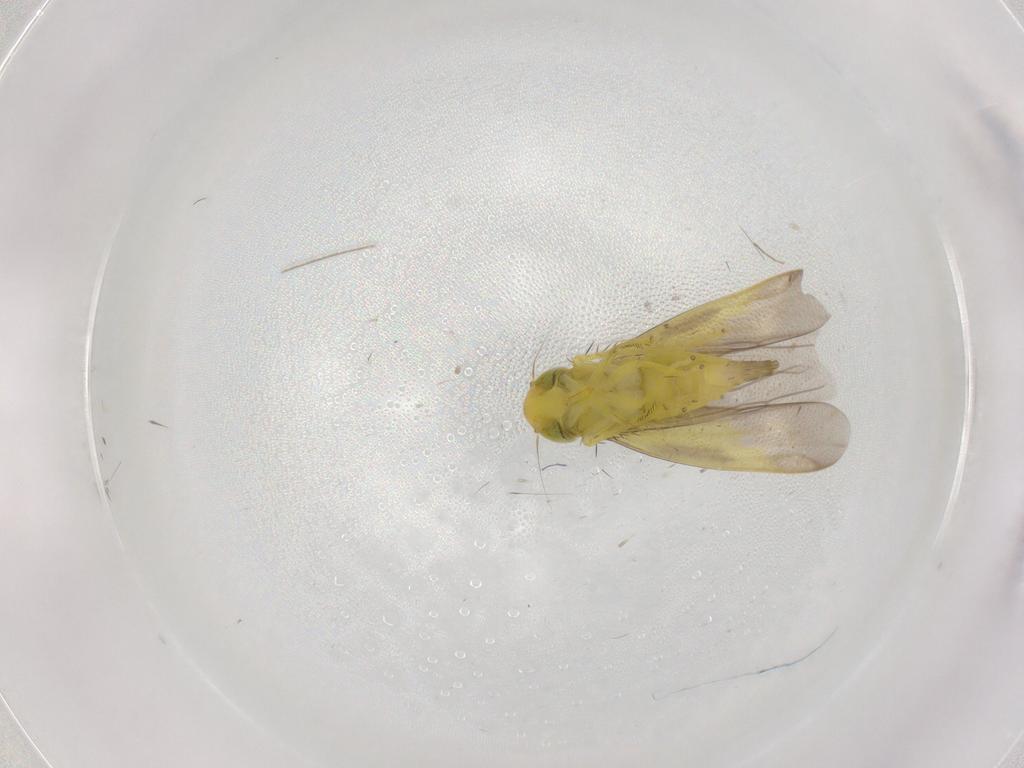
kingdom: Animalia
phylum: Arthropoda
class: Insecta
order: Hemiptera
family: Cicadellidae
